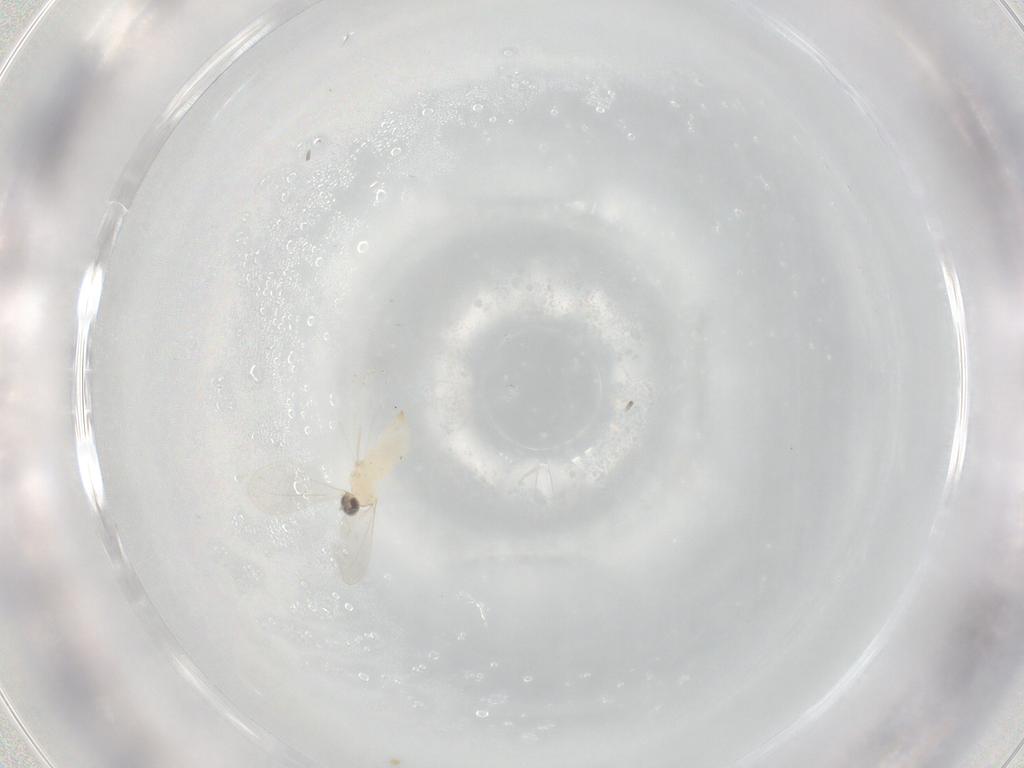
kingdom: Animalia
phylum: Arthropoda
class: Insecta
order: Diptera
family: Cecidomyiidae
